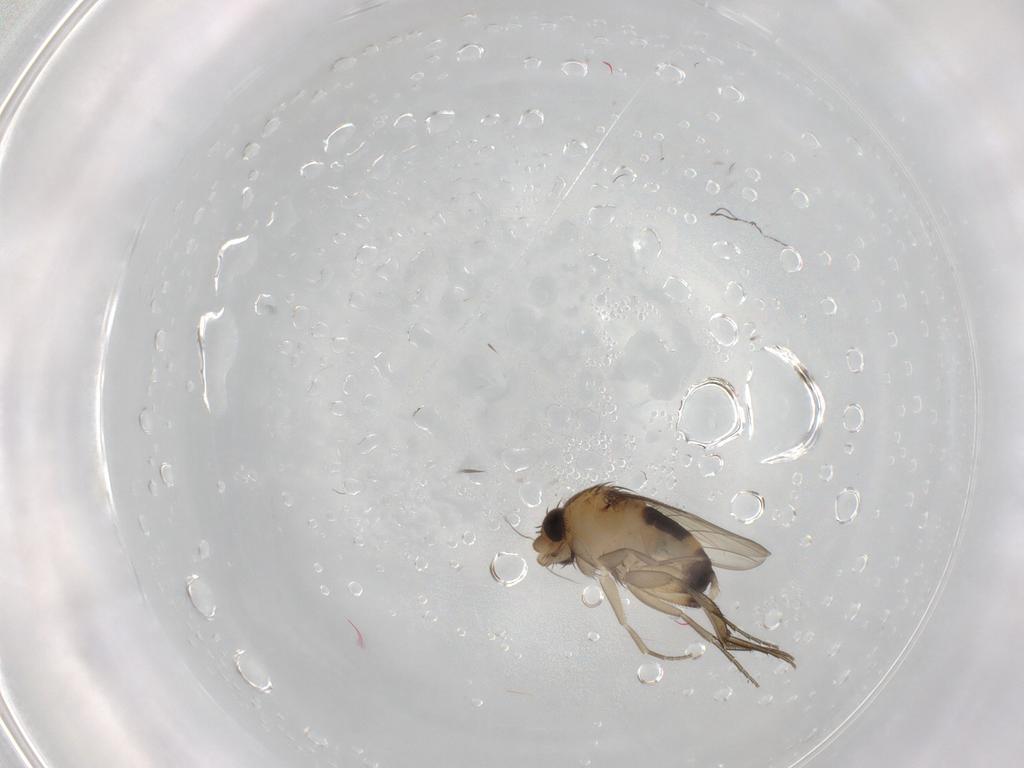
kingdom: Animalia
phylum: Arthropoda
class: Insecta
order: Diptera
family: Phoridae
